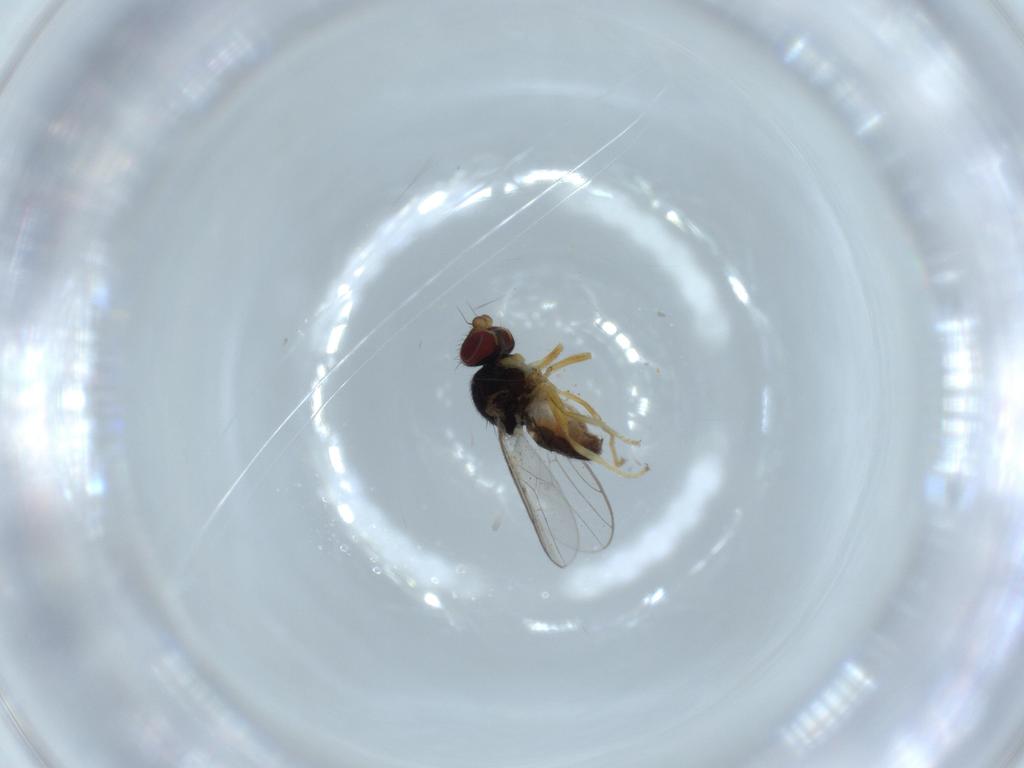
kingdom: Animalia
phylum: Arthropoda
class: Insecta
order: Diptera
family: Chloropidae
